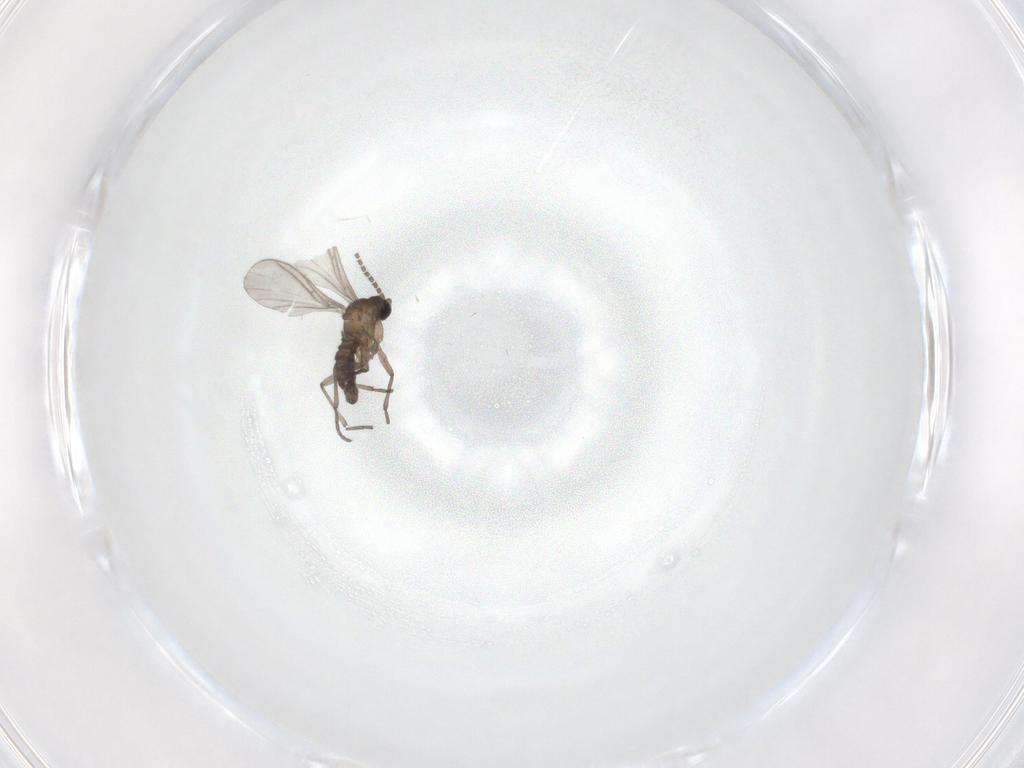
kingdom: Animalia
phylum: Arthropoda
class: Insecta
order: Diptera
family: Sciaridae
